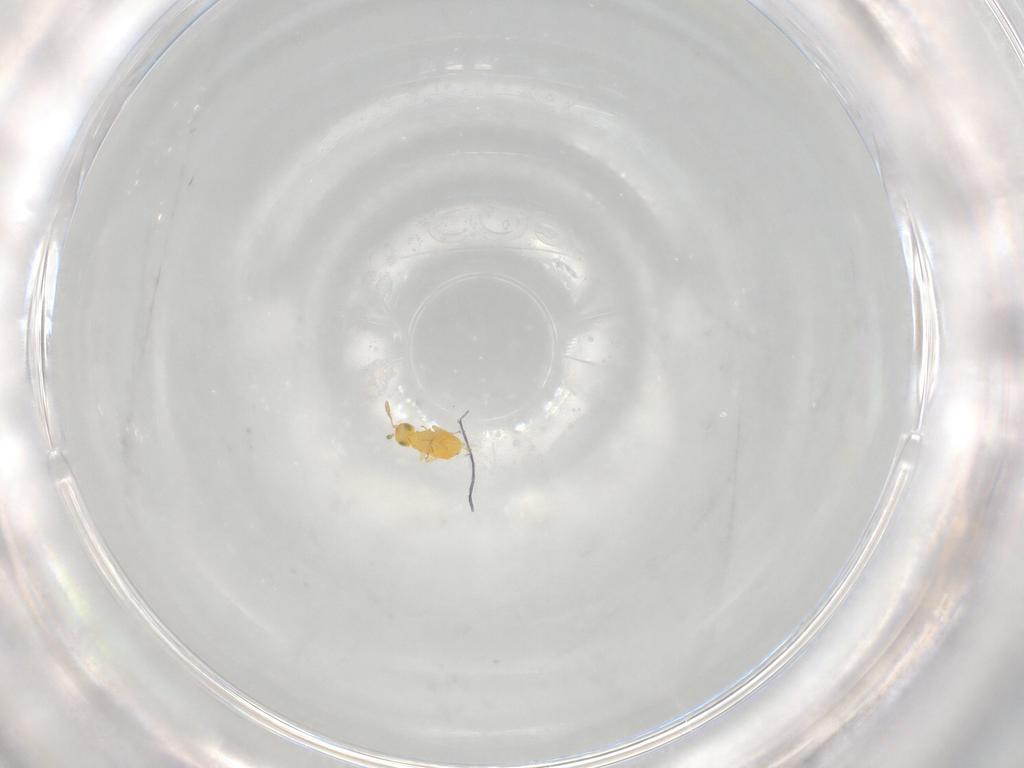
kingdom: Animalia
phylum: Arthropoda
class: Insecta
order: Hymenoptera
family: Encyrtidae
